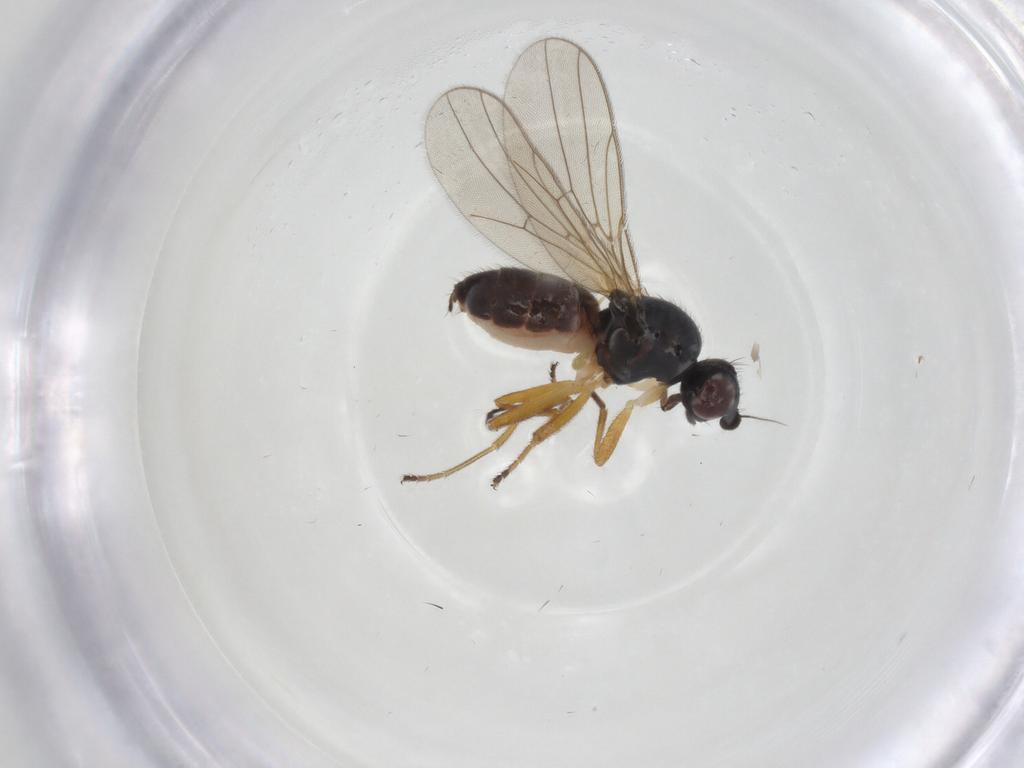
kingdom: Animalia
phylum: Arthropoda
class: Insecta
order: Diptera
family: Chloropidae
